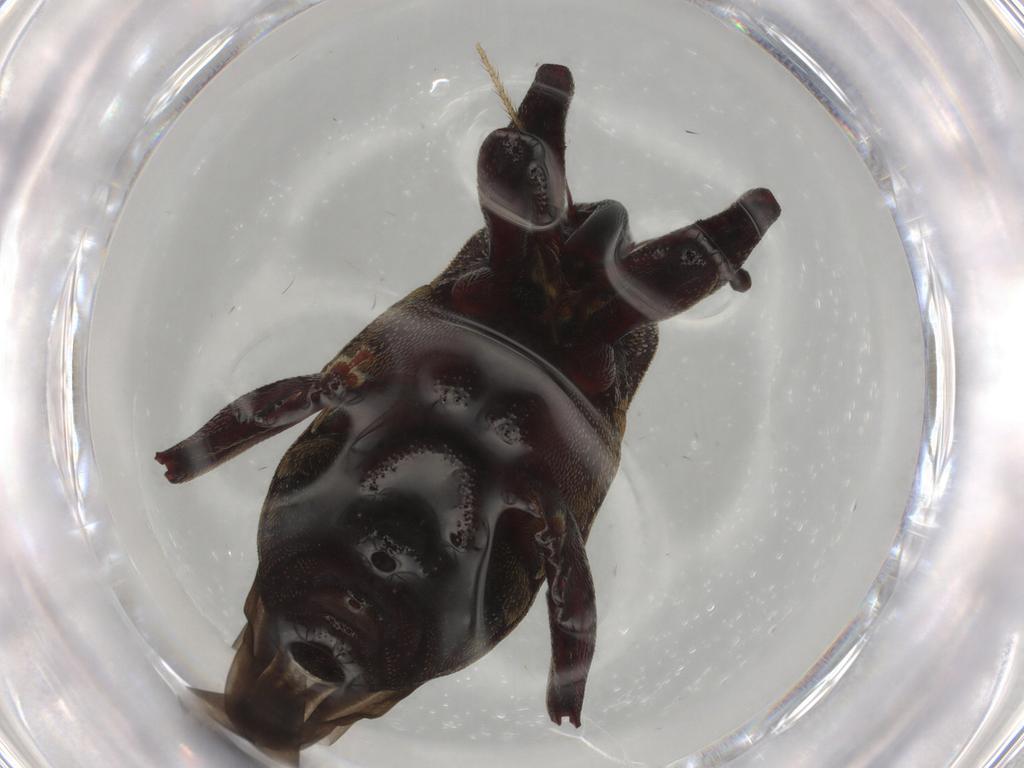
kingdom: Animalia
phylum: Arthropoda
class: Insecta
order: Coleoptera
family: Curculionidae
